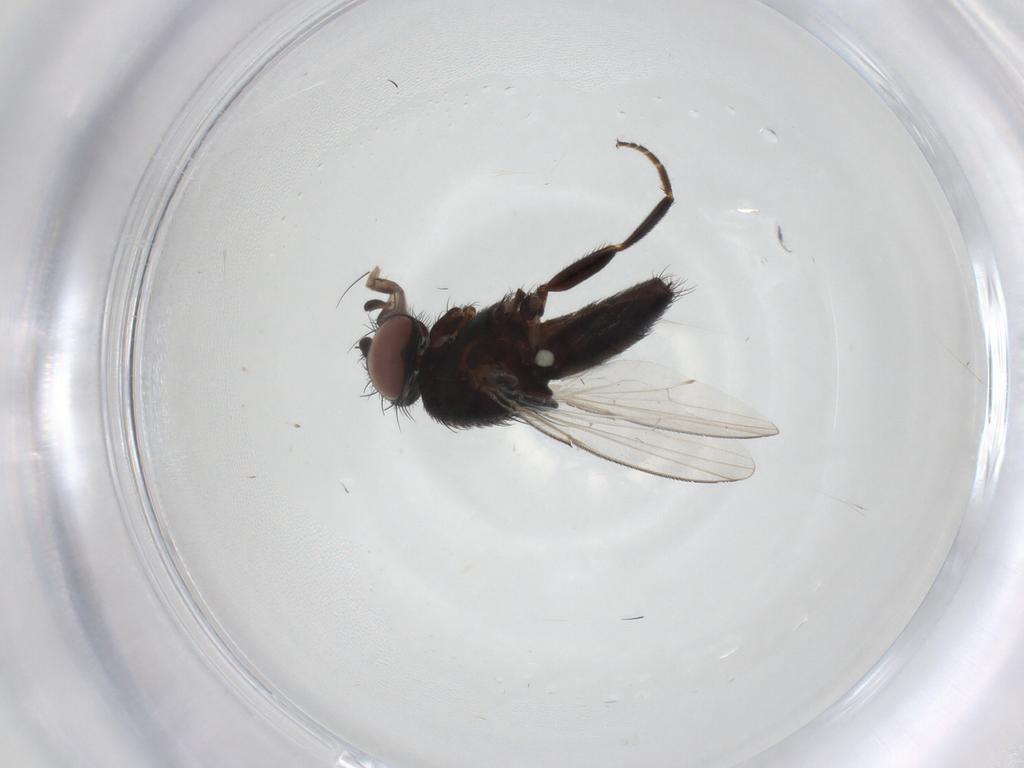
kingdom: Animalia
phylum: Arthropoda
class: Insecta
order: Diptera
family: Milichiidae
